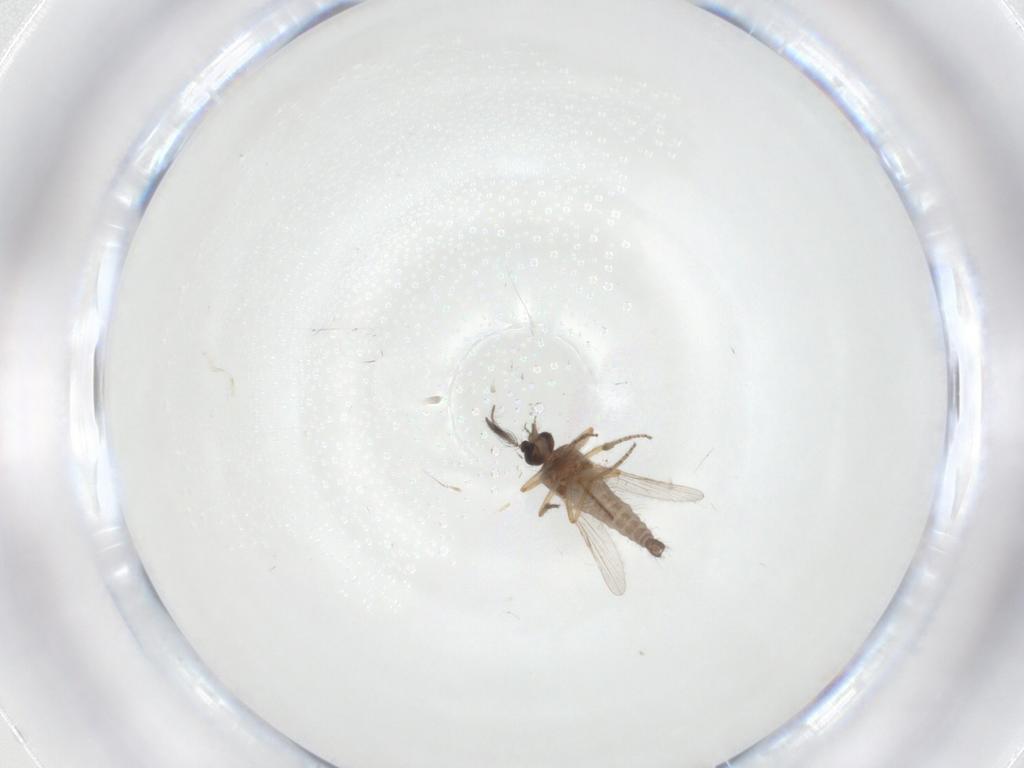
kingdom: Animalia
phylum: Arthropoda
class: Insecta
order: Diptera
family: Ceratopogonidae
